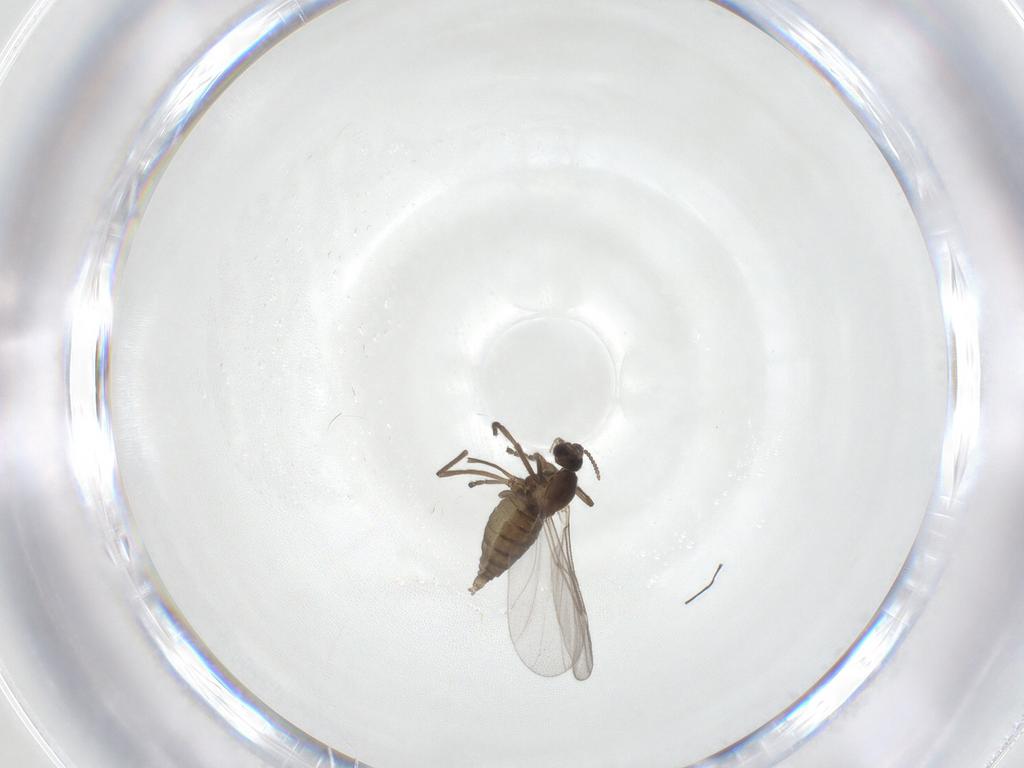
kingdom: Animalia
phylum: Arthropoda
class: Insecta
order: Diptera
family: Cecidomyiidae
